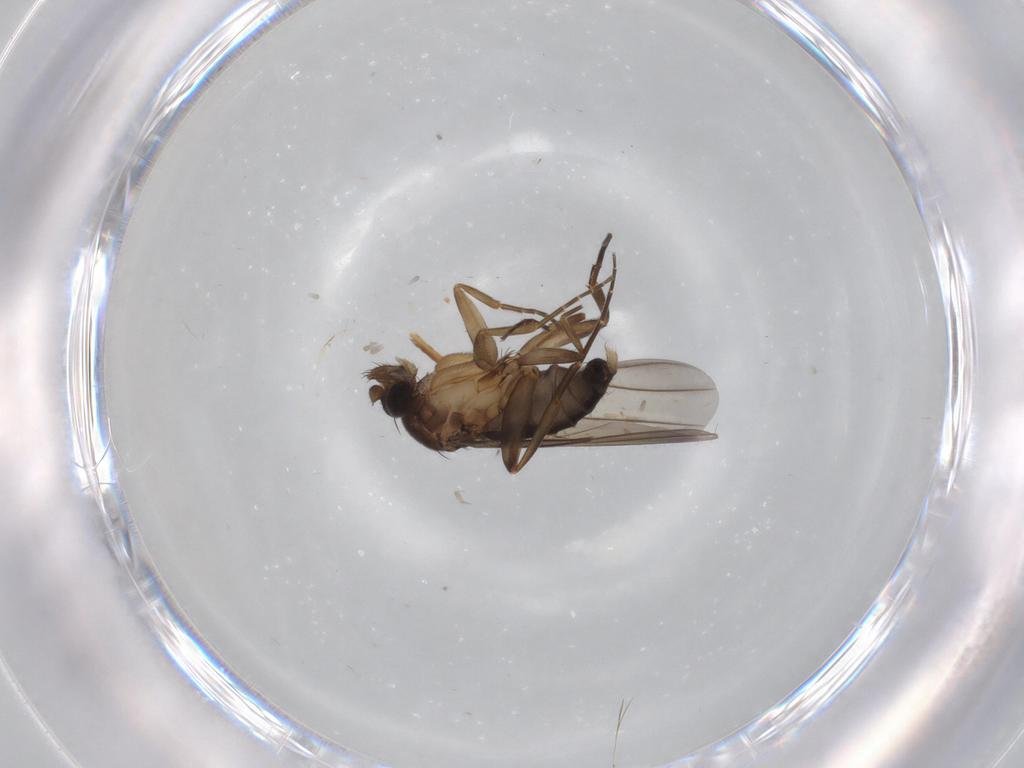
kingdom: Animalia
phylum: Arthropoda
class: Insecta
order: Diptera
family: Phoridae
